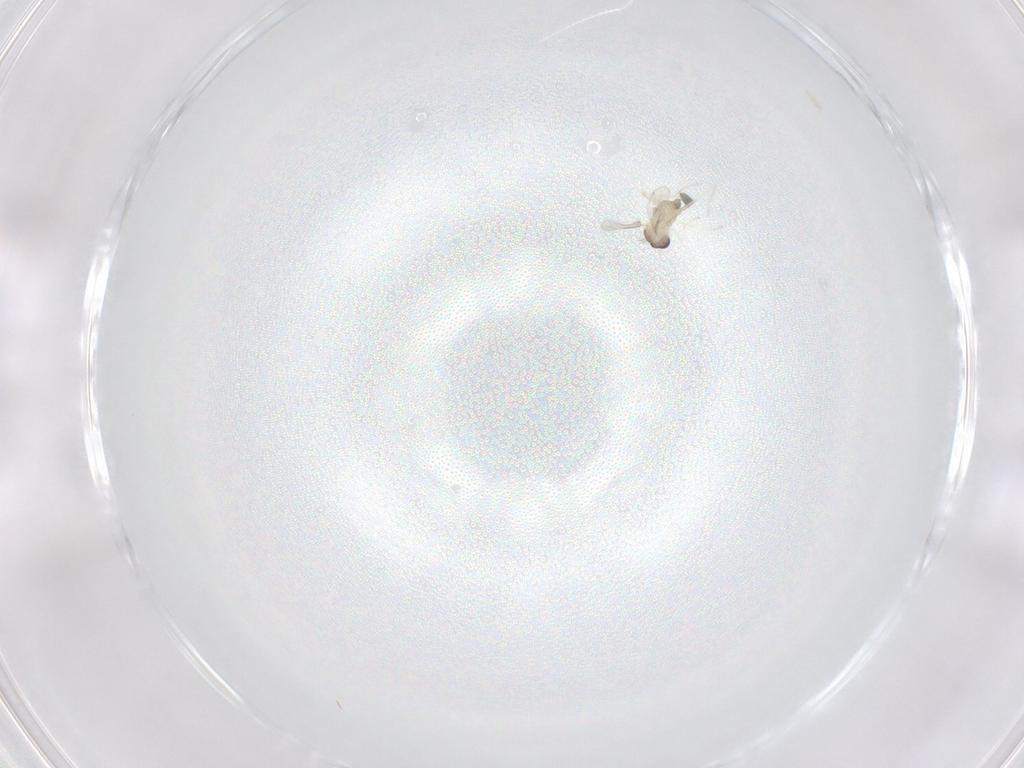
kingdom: Animalia
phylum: Arthropoda
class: Insecta
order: Diptera
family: Cecidomyiidae
